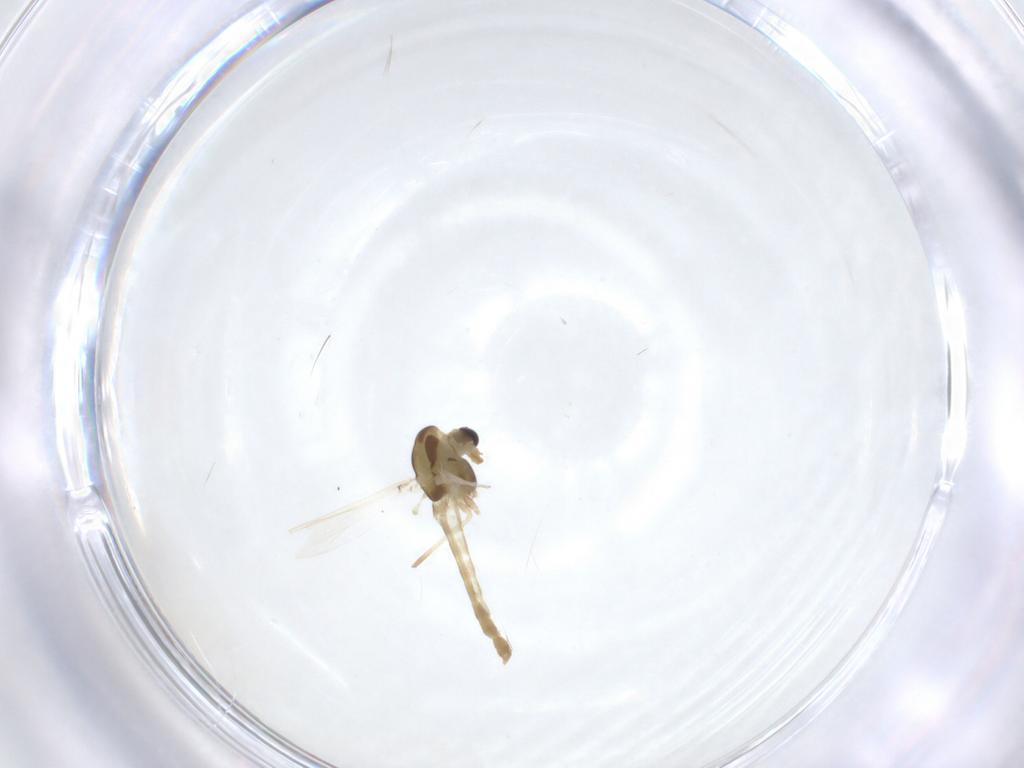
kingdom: Animalia
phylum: Arthropoda
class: Insecta
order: Diptera
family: Chironomidae
